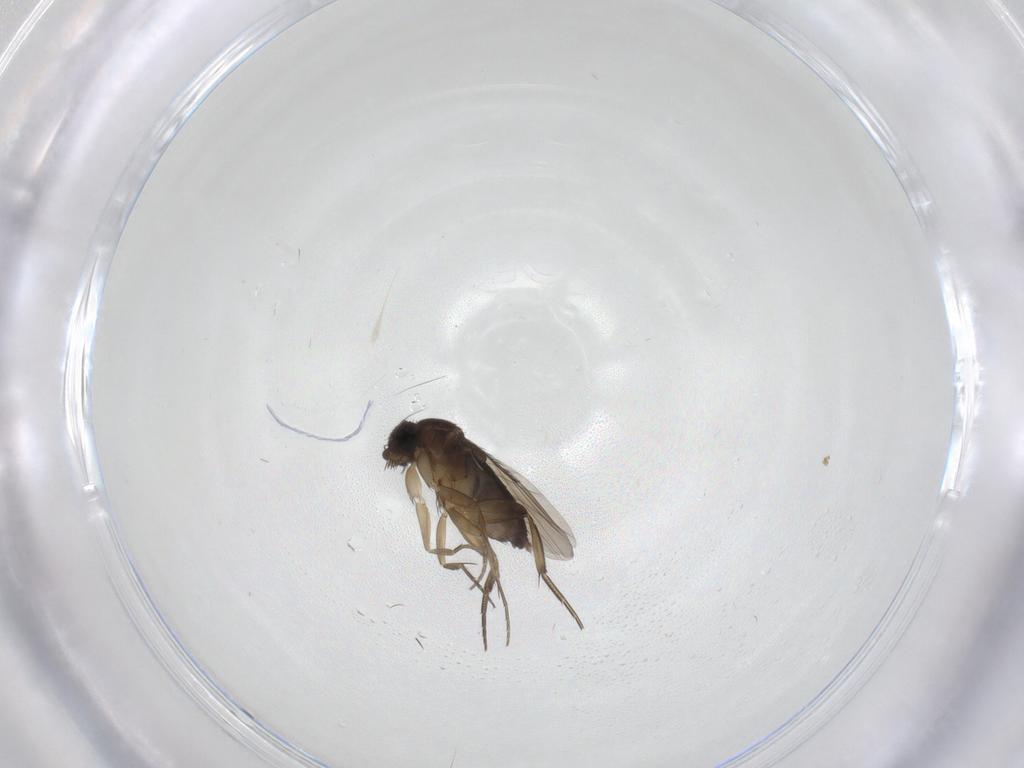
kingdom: Animalia
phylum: Arthropoda
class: Insecta
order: Diptera
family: Phoridae
